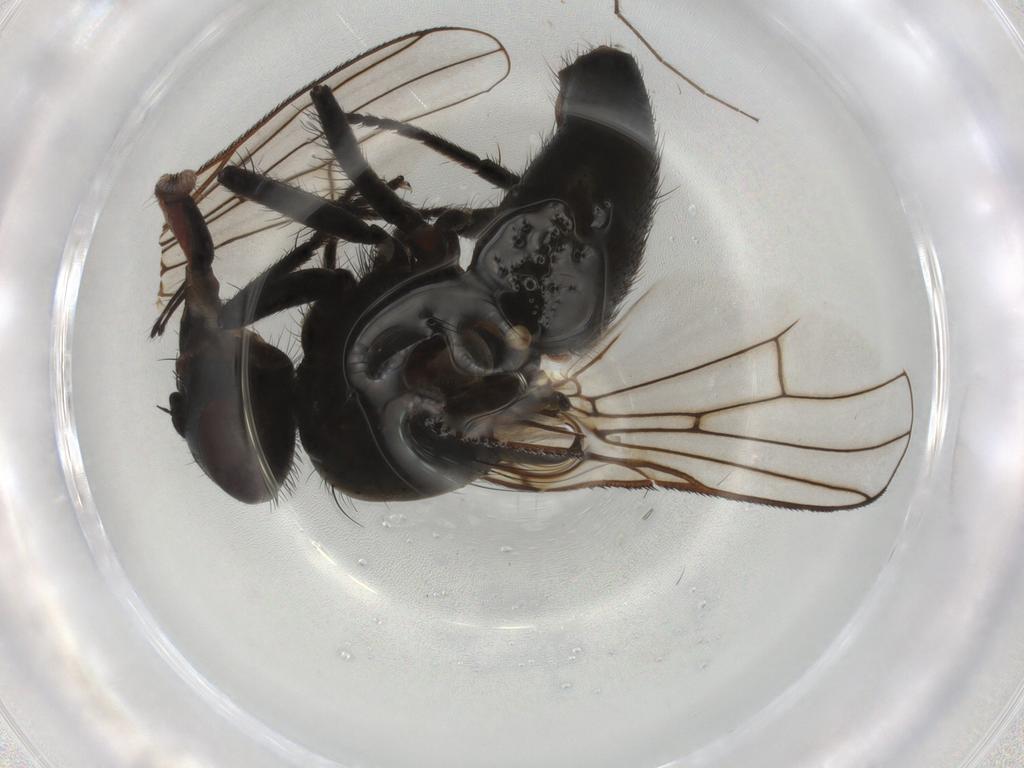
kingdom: Animalia
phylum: Arthropoda
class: Insecta
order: Diptera
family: Muscidae
